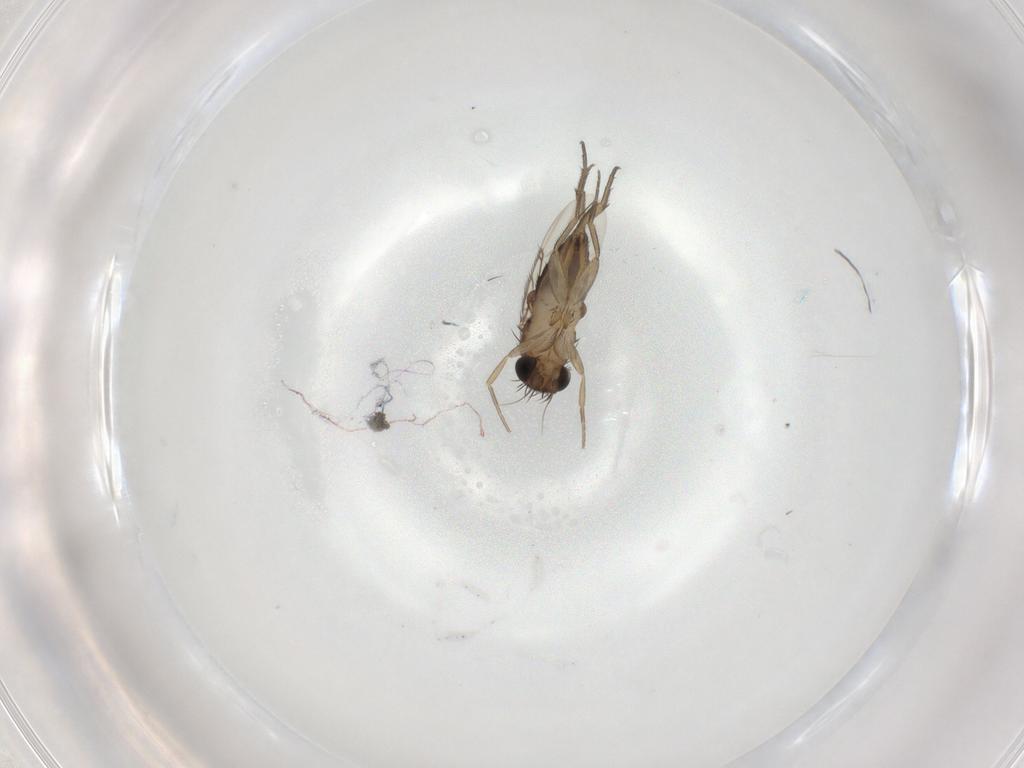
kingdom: Animalia
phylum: Arthropoda
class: Insecta
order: Diptera
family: Phoridae
